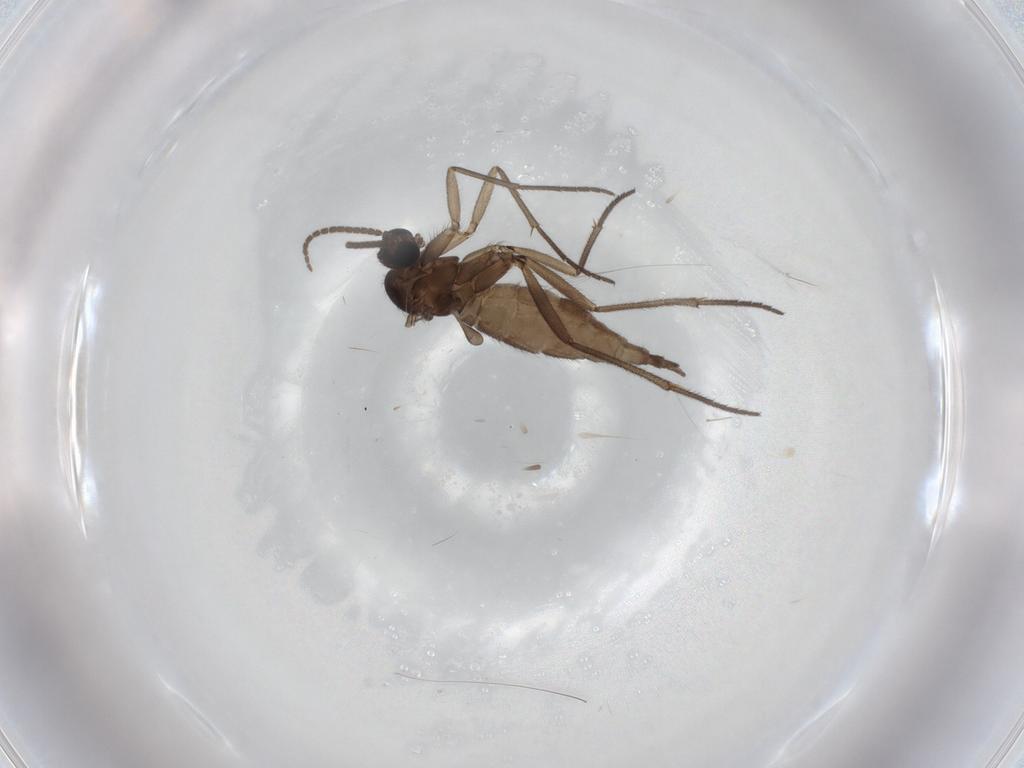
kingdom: Animalia
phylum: Arthropoda
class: Insecta
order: Diptera
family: Sciaridae
